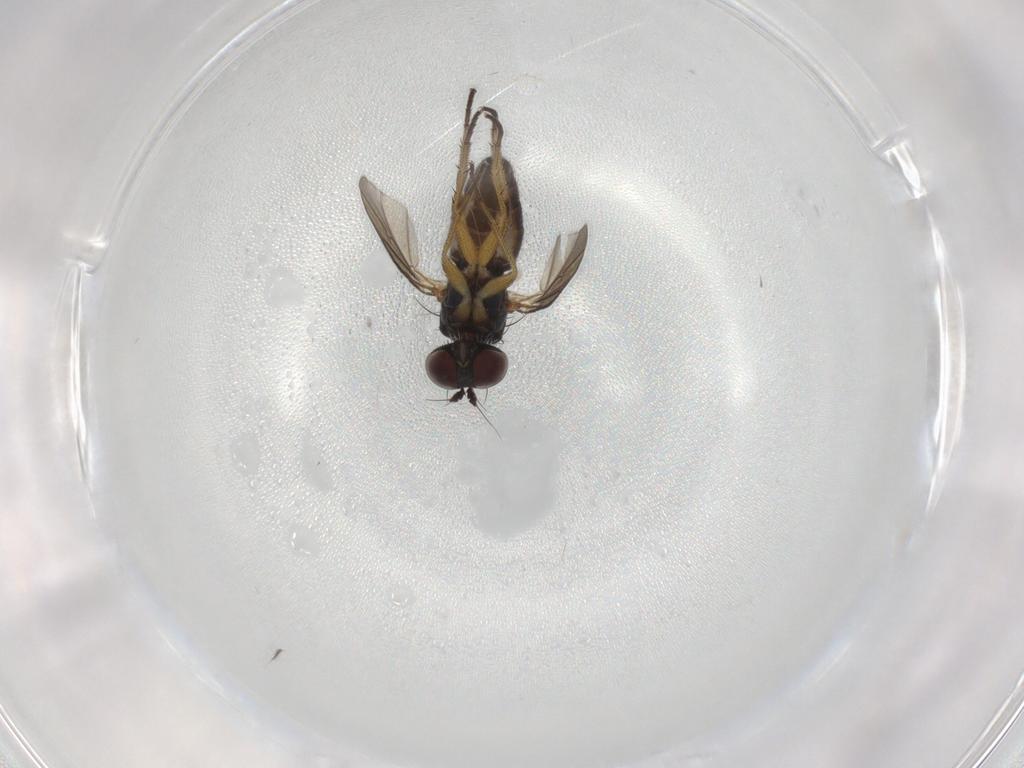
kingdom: Animalia
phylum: Arthropoda
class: Insecta
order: Diptera
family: Dolichopodidae
